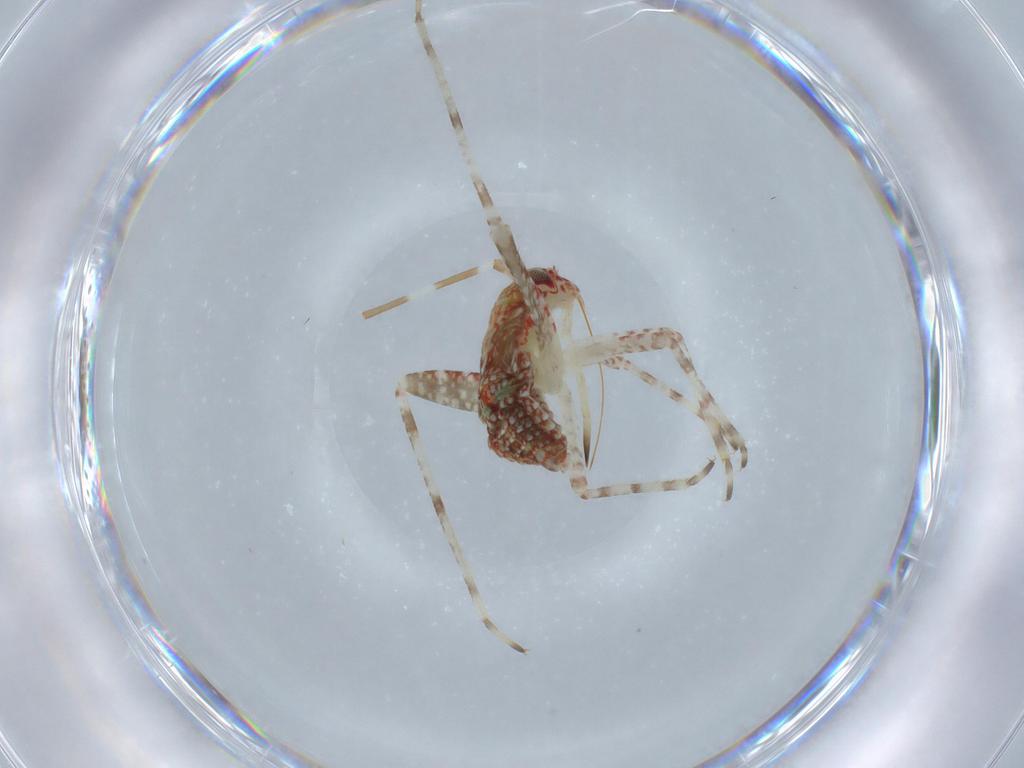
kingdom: Animalia
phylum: Arthropoda
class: Insecta
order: Hemiptera
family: Miridae
